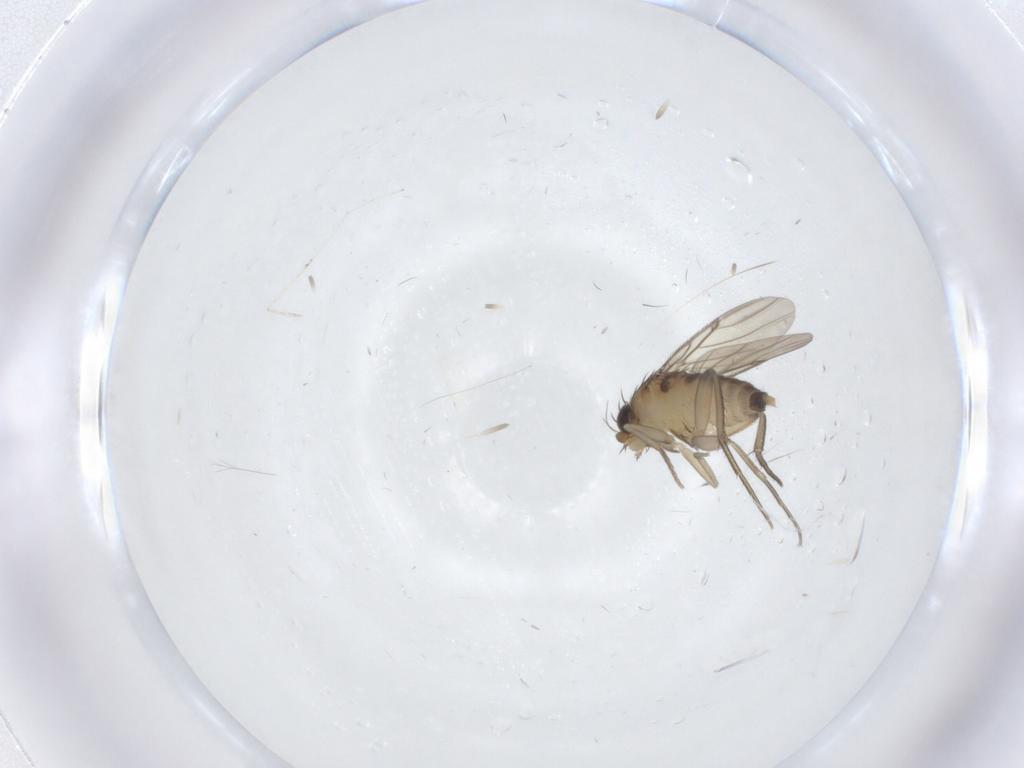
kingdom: Animalia
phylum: Arthropoda
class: Insecta
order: Diptera
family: Phoridae
